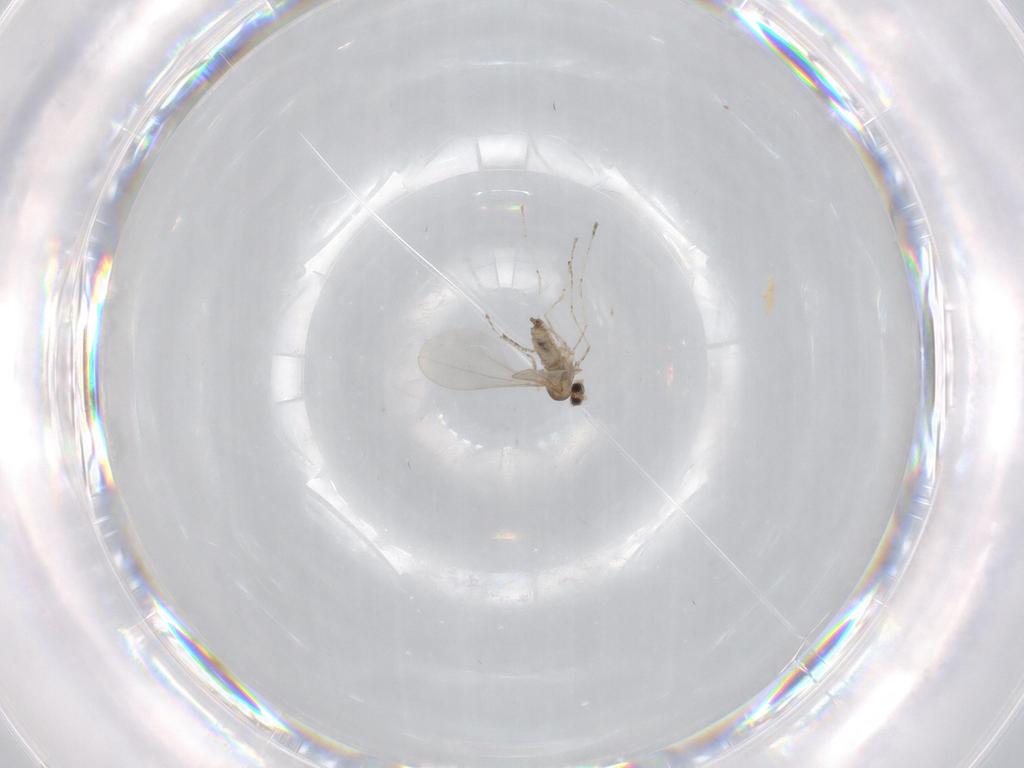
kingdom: Animalia
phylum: Arthropoda
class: Insecta
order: Diptera
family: Cecidomyiidae
